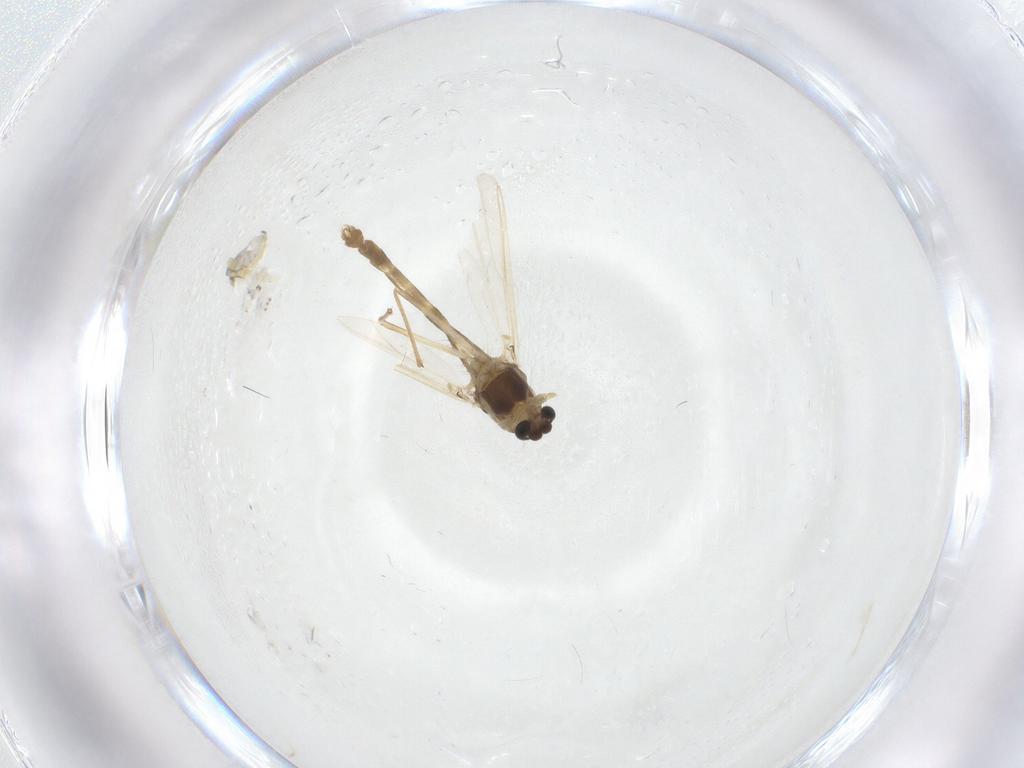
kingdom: Animalia
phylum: Arthropoda
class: Insecta
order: Diptera
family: Chironomidae
